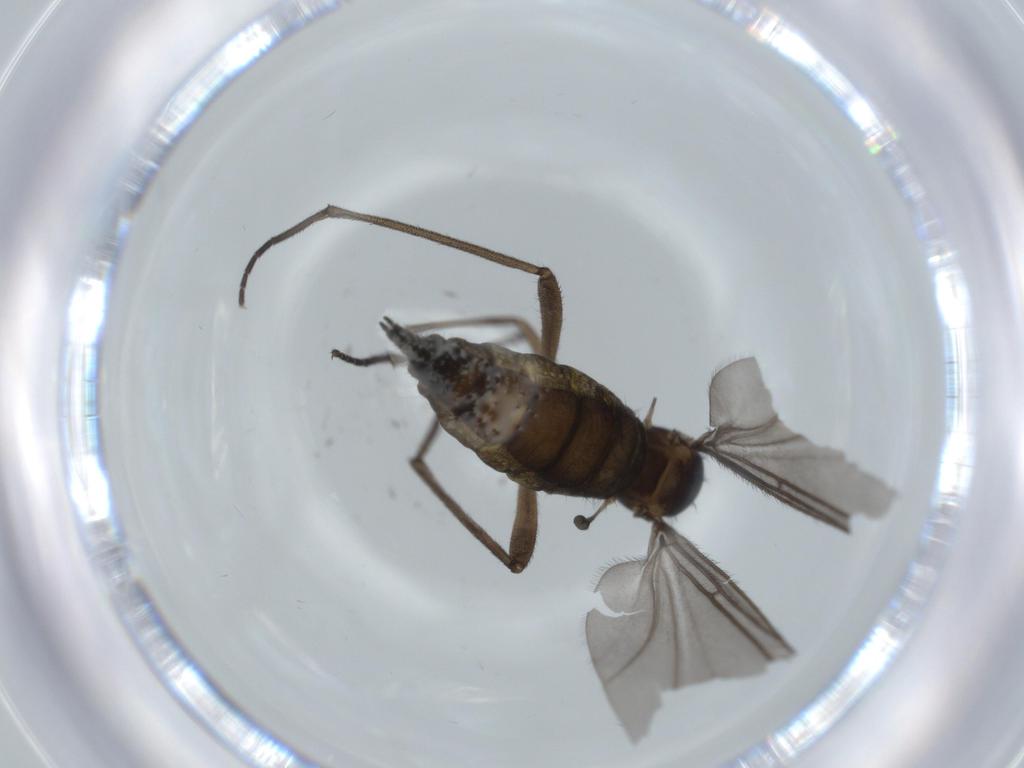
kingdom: Animalia
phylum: Arthropoda
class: Insecta
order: Diptera
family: Sciaridae
